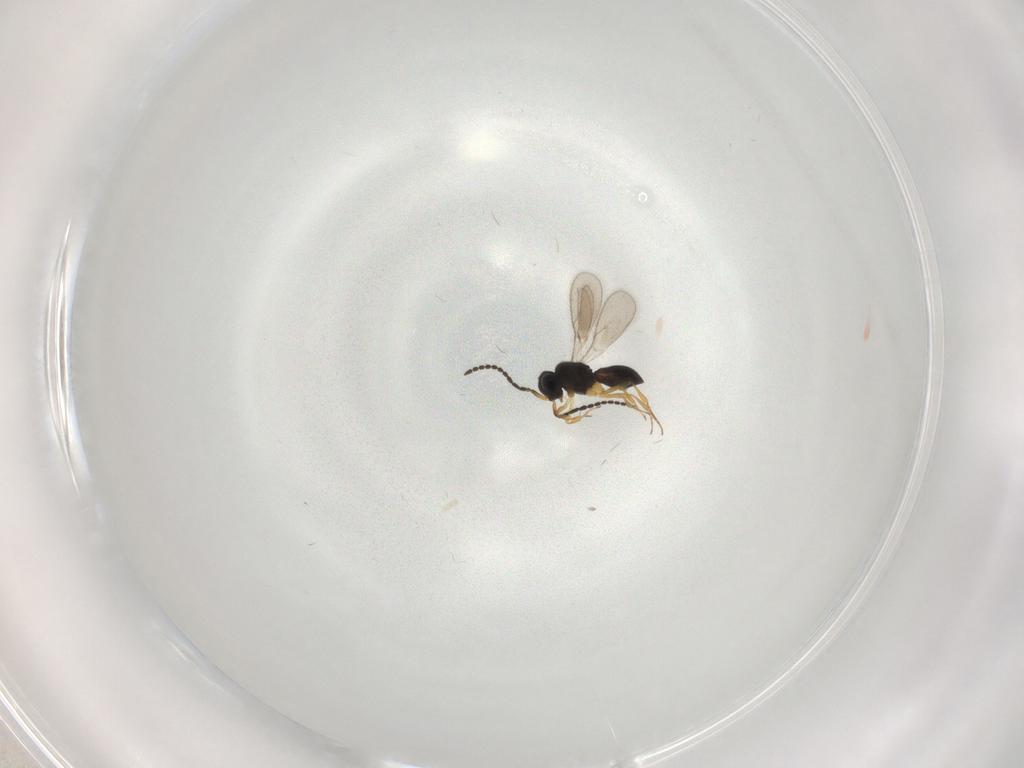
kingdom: Animalia
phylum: Arthropoda
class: Insecta
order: Hymenoptera
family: Scelionidae
